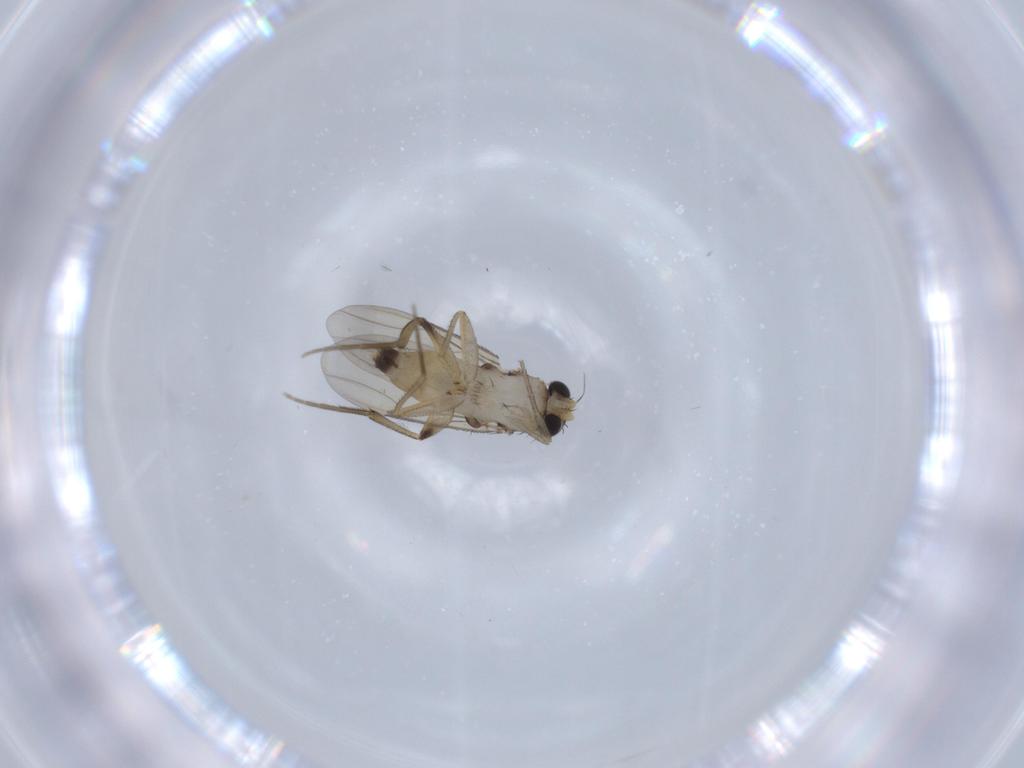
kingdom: Animalia
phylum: Arthropoda
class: Insecta
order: Diptera
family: Phoridae
